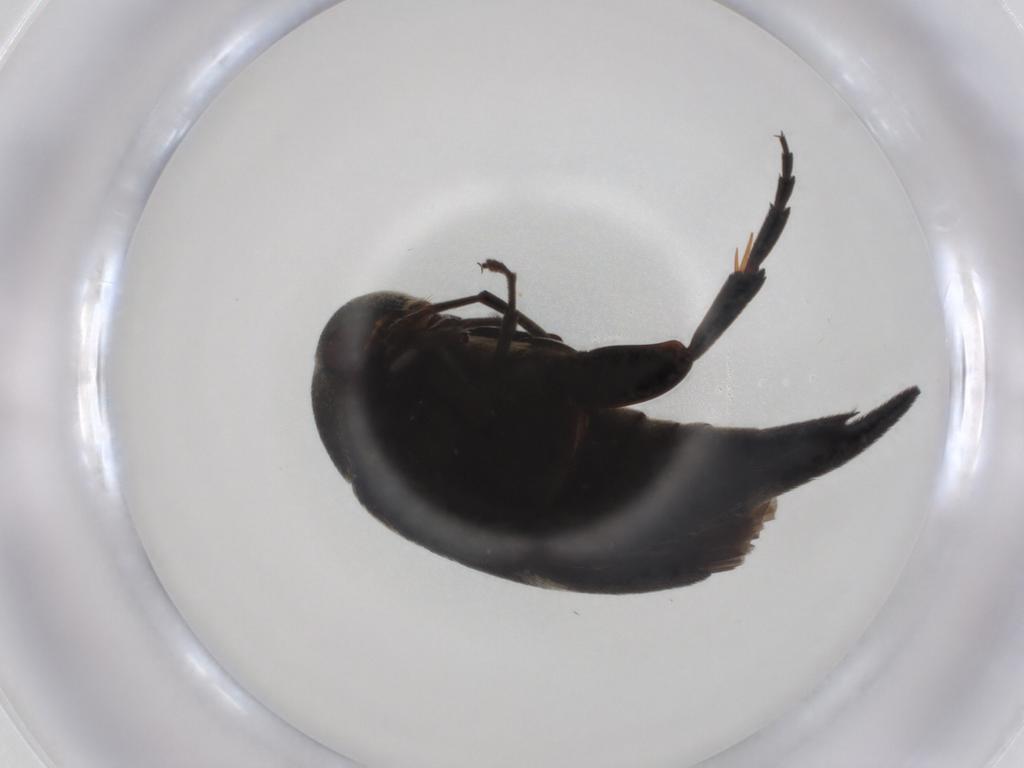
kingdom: Animalia
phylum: Arthropoda
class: Insecta
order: Coleoptera
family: Mordellidae
